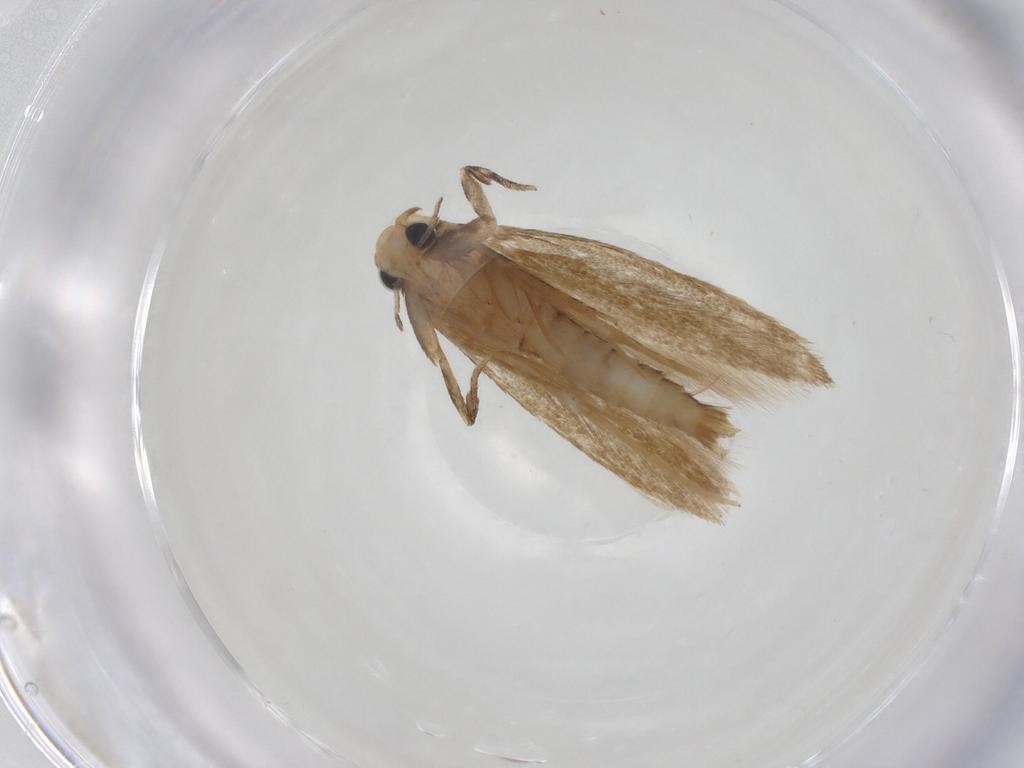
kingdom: Animalia
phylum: Arthropoda
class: Insecta
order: Lepidoptera
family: Tineidae
